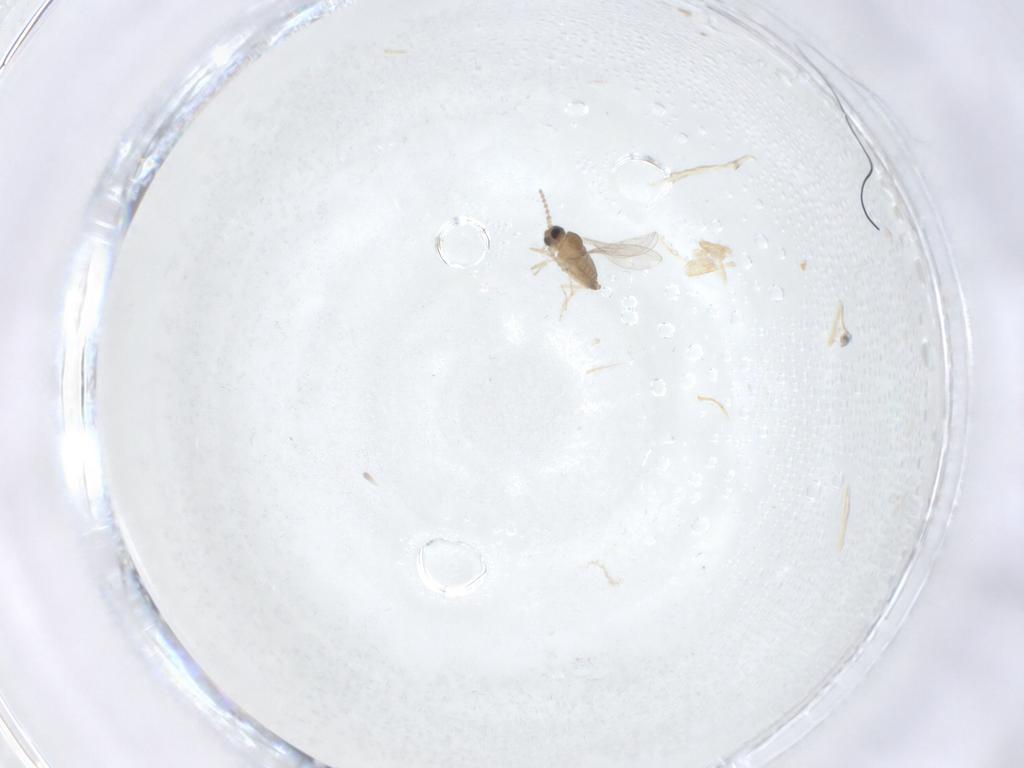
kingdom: Animalia
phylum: Arthropoda
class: Insecta
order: Diptera
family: Cecidomyiidae
